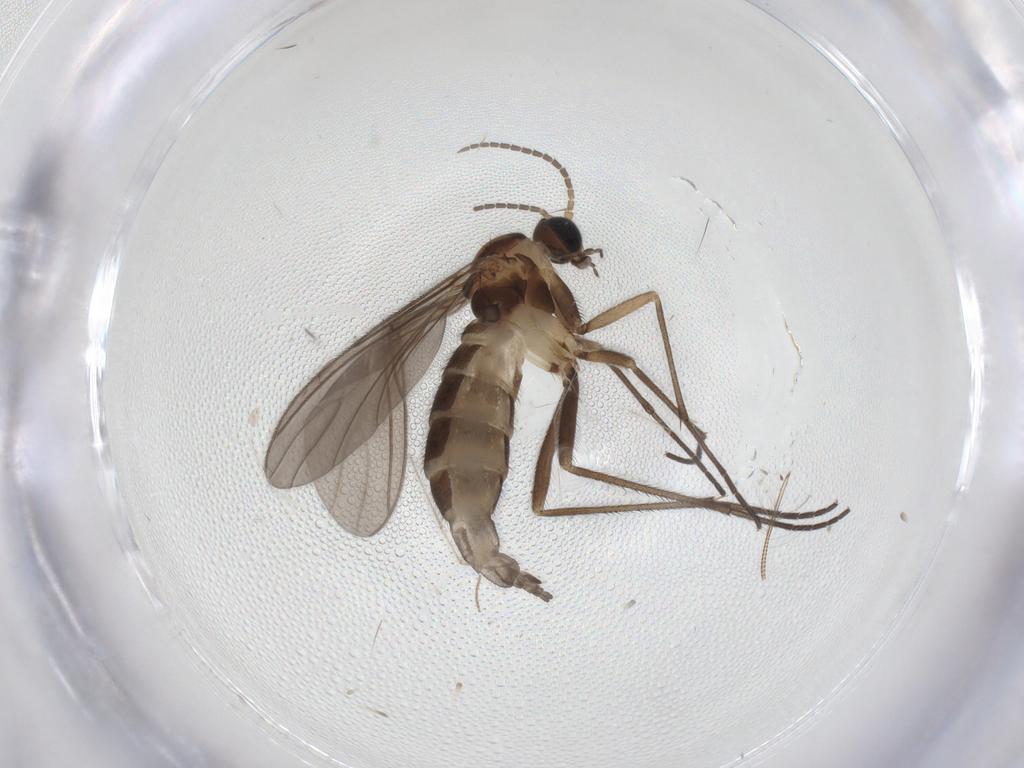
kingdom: Animalia
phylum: Arthropoda
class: Insecta
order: Diptera
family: Sciaridae
